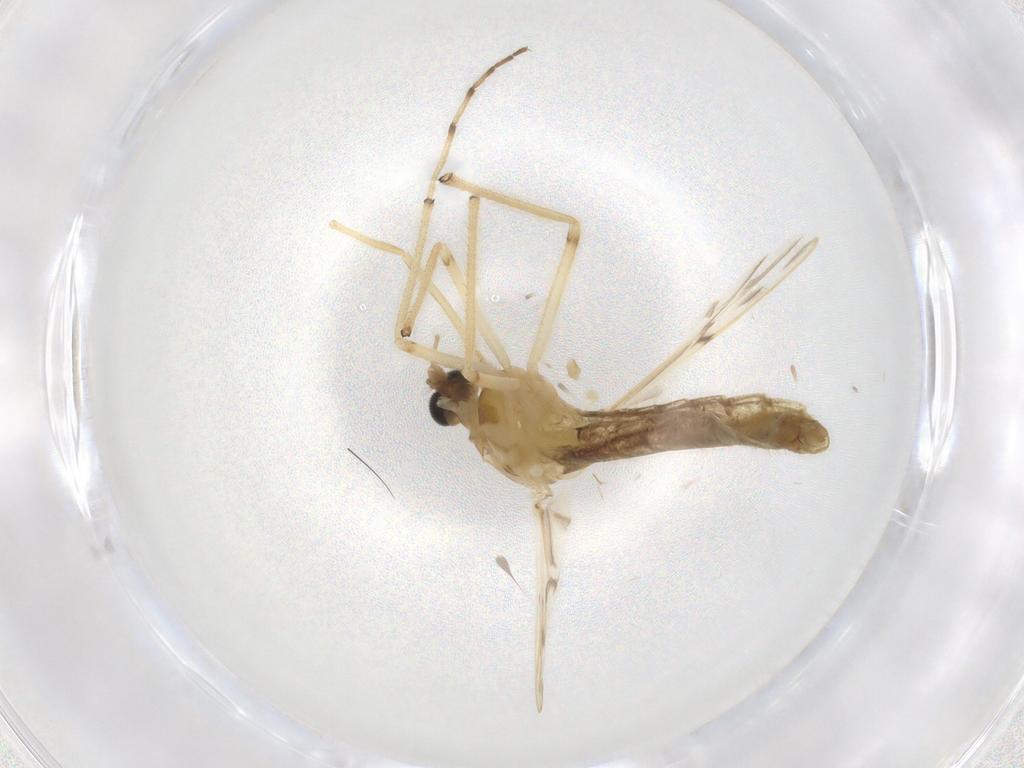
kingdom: Animalia
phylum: Arthropoda
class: Insecta
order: Diptera
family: Chironomidae
